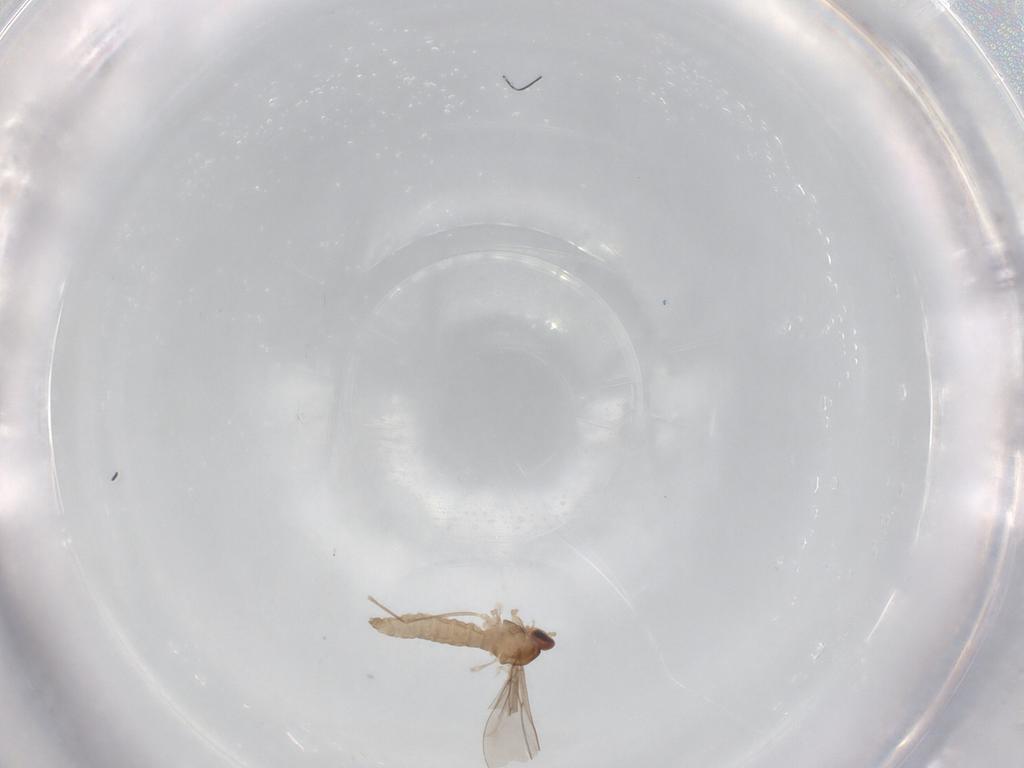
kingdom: Animalia
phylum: Arthropoda
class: Insecta
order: Diptera
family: Cecidomyiidae
